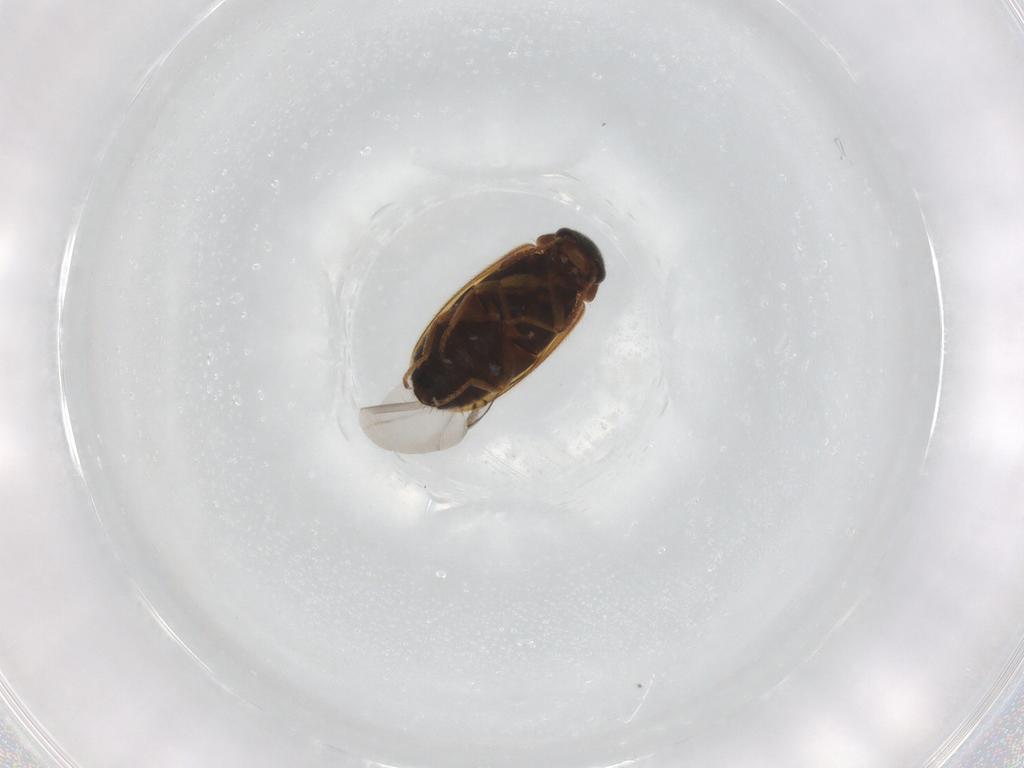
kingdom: Animalia
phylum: Arthropoda
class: Insecta
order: Coleoptera
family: Melyridae
